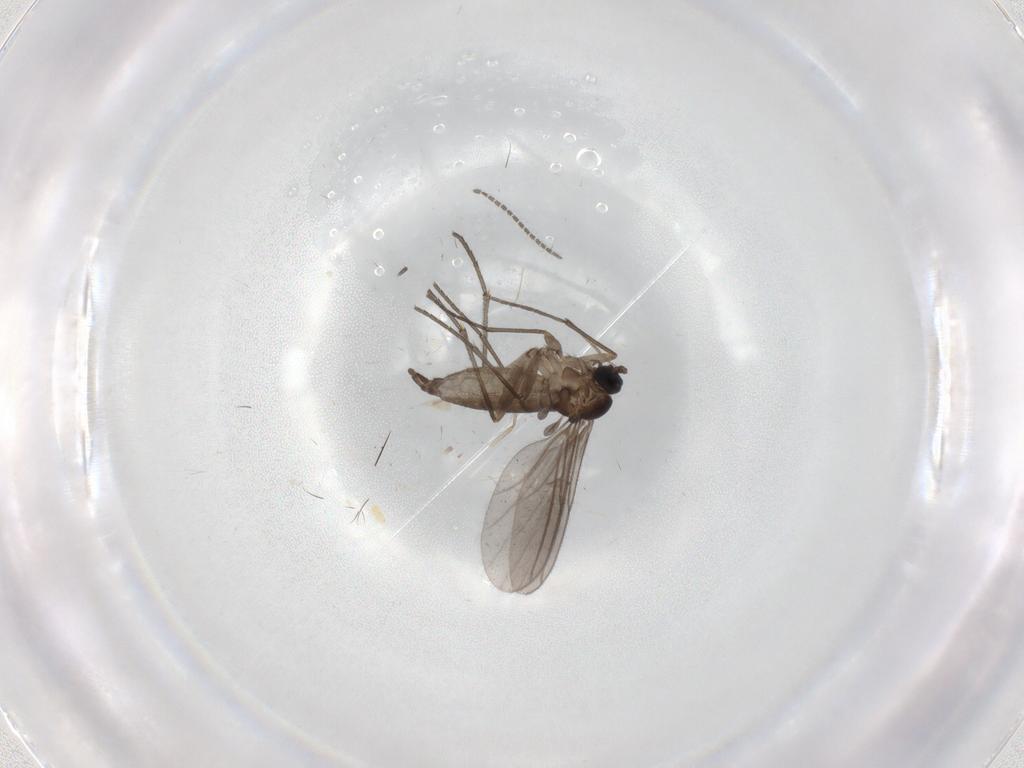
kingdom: Animalia
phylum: Arthropoda
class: Insecta
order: Diptera
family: Sciaridae
